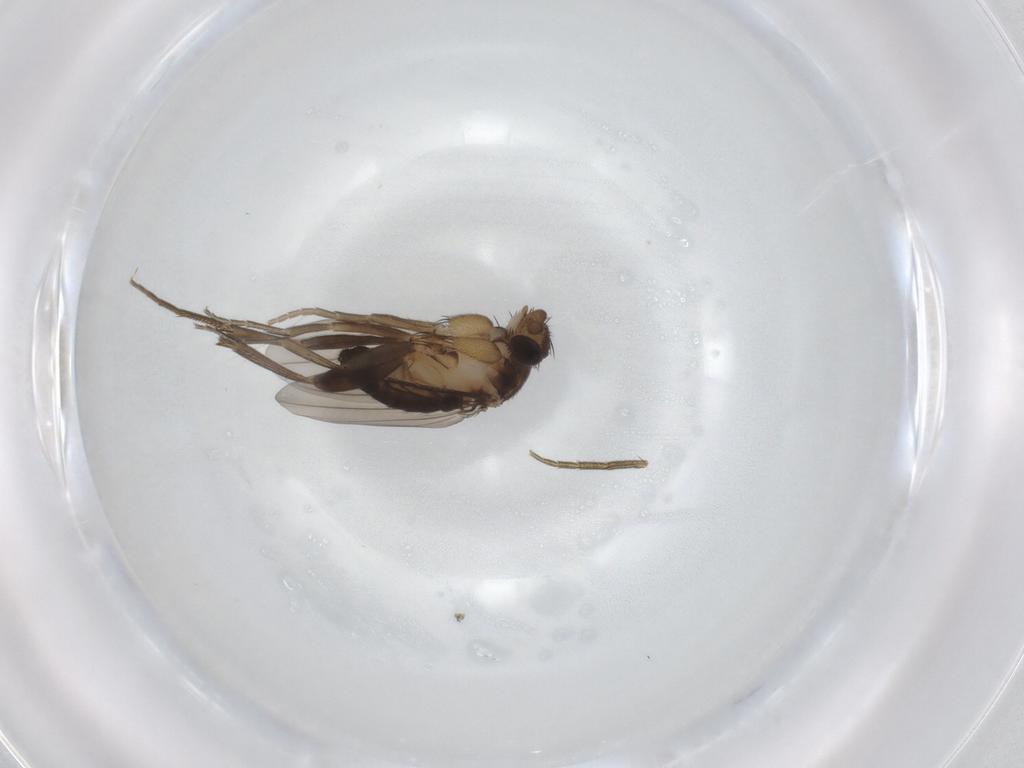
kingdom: Animalia
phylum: Arthropoda
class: Insecta
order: Diptera
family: Phoridae
